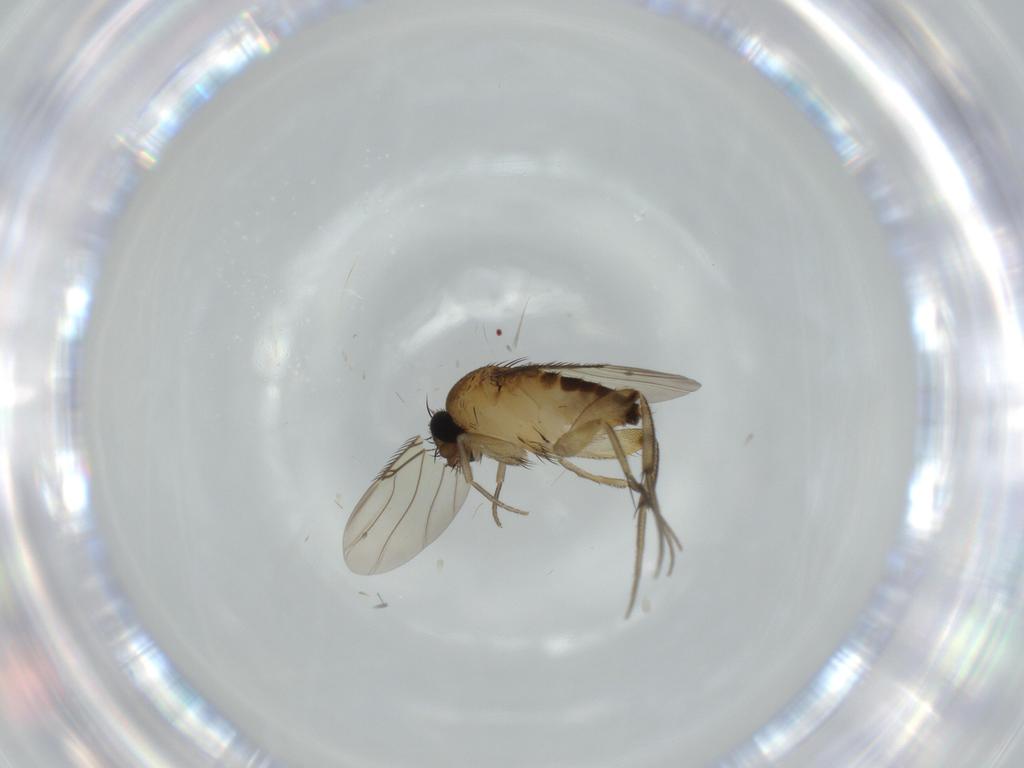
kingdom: Animalia
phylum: Arthropoda
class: Insecta
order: Diptera
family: Phoridae
